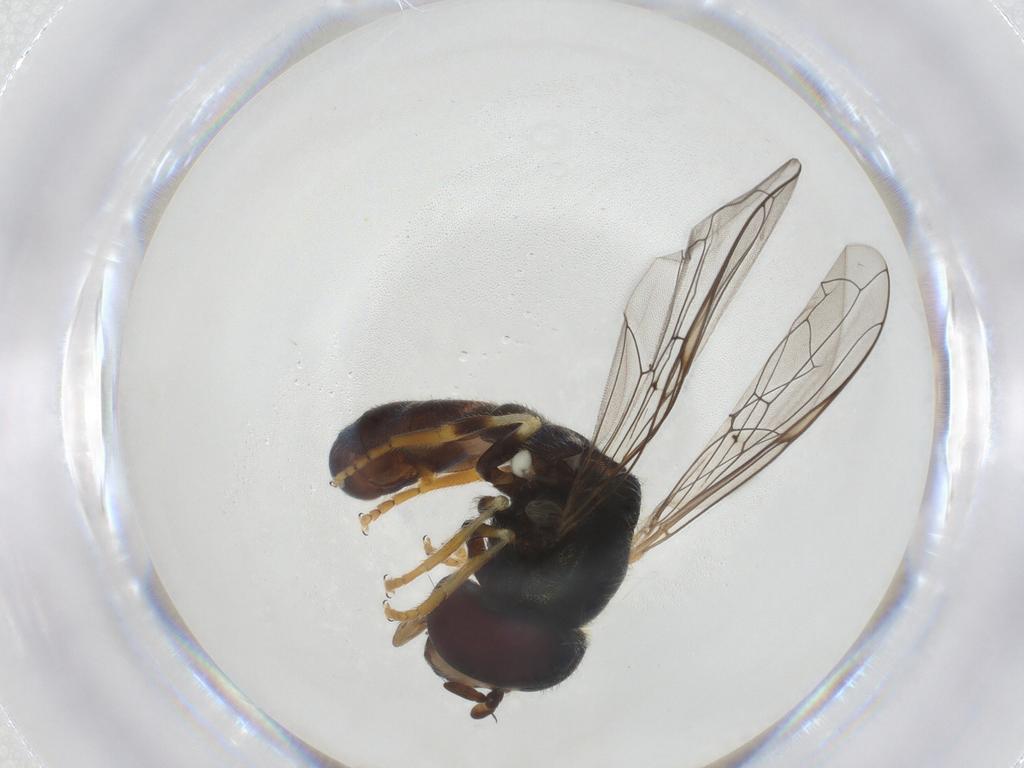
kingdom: Animalia
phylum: Arthropoda
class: Insecta
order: Diptera
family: Syrphidae
